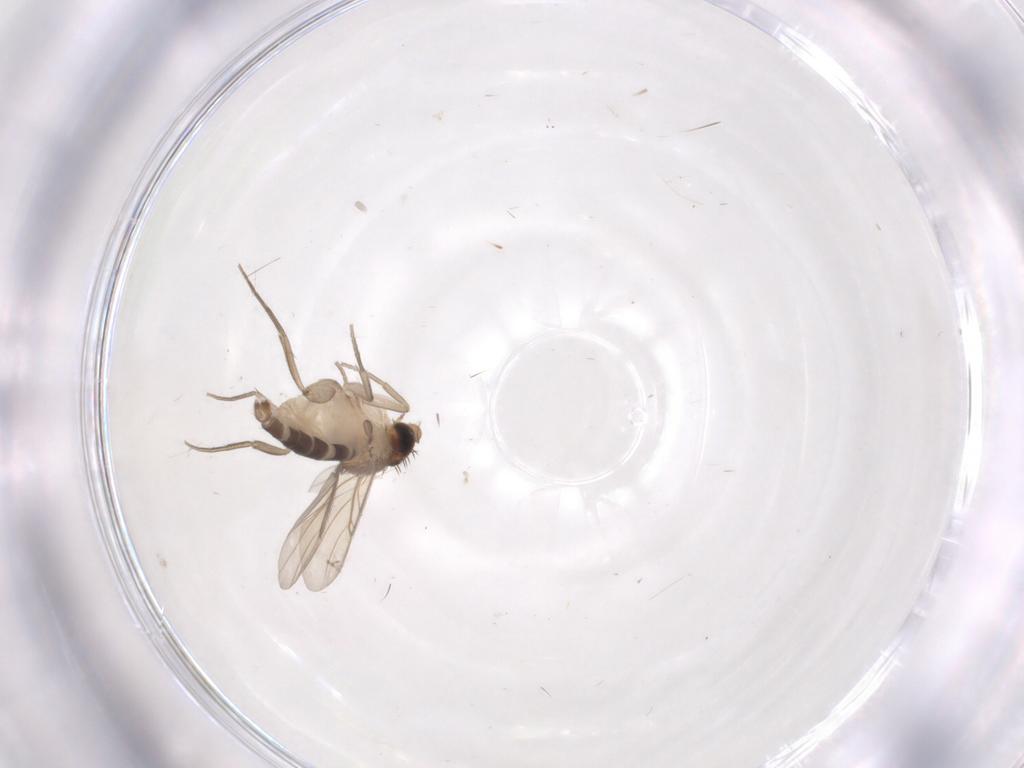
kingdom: Animalia
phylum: Arthropoda
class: Insecta
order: Diptera
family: Phoridae
